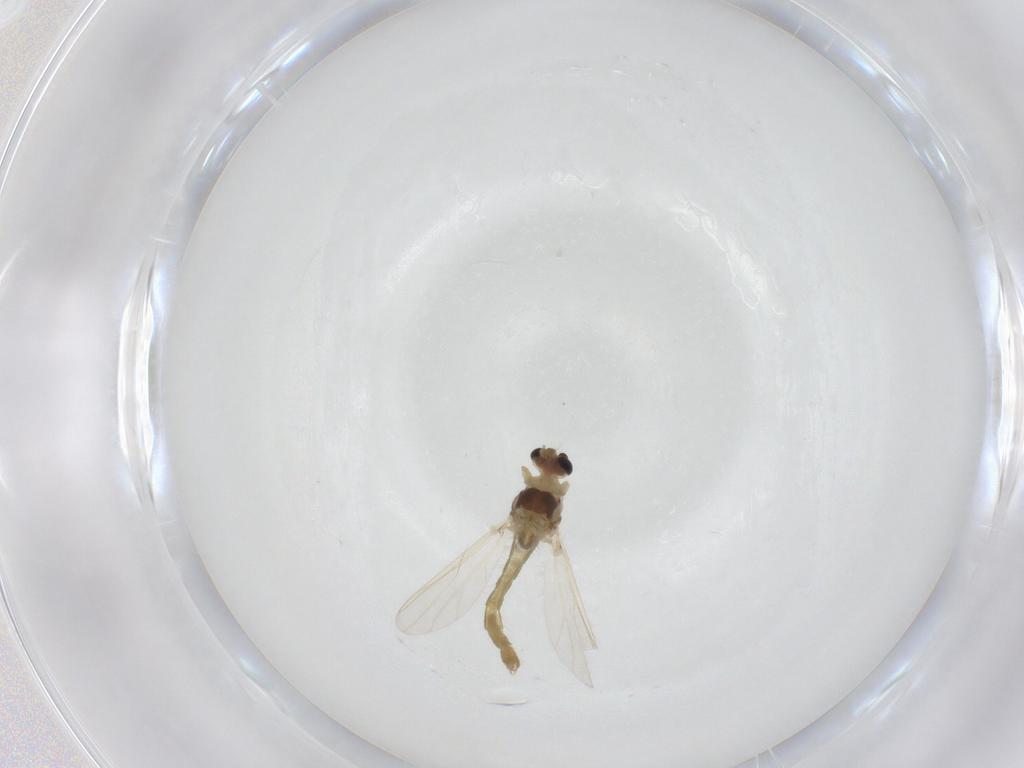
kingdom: Animalia
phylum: Arthropoda
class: Insecta
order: Diptera
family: Chironomidae
